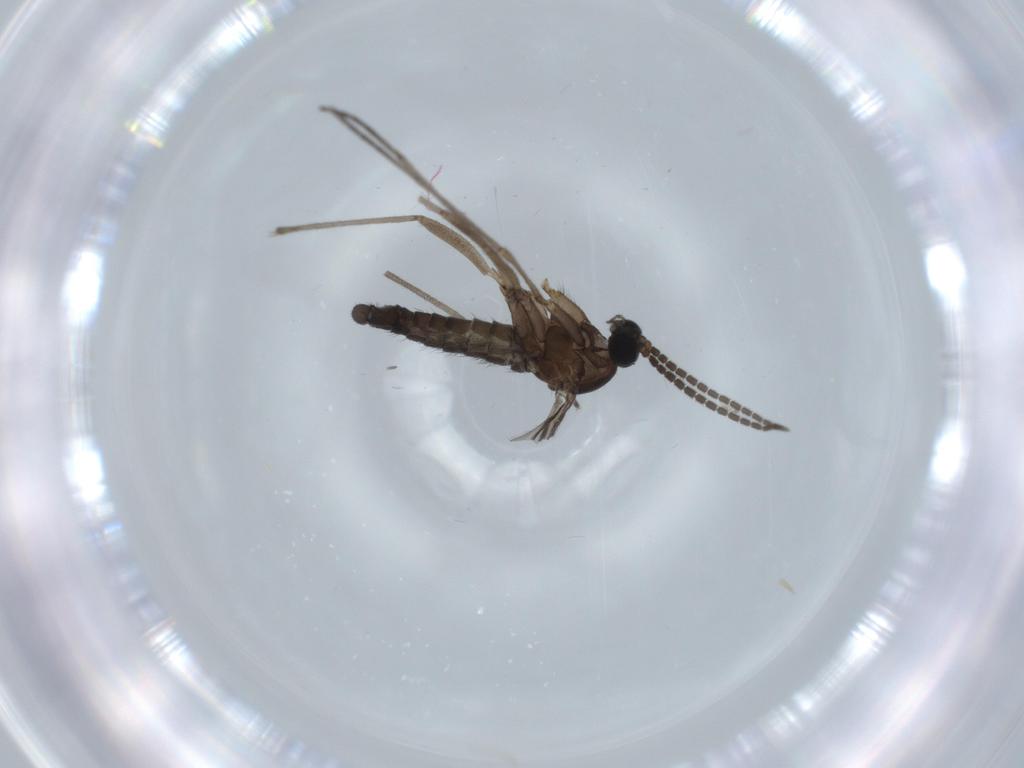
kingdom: Animalia
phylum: Arthropoda
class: Insecta
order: Diptera
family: Sciaridae
